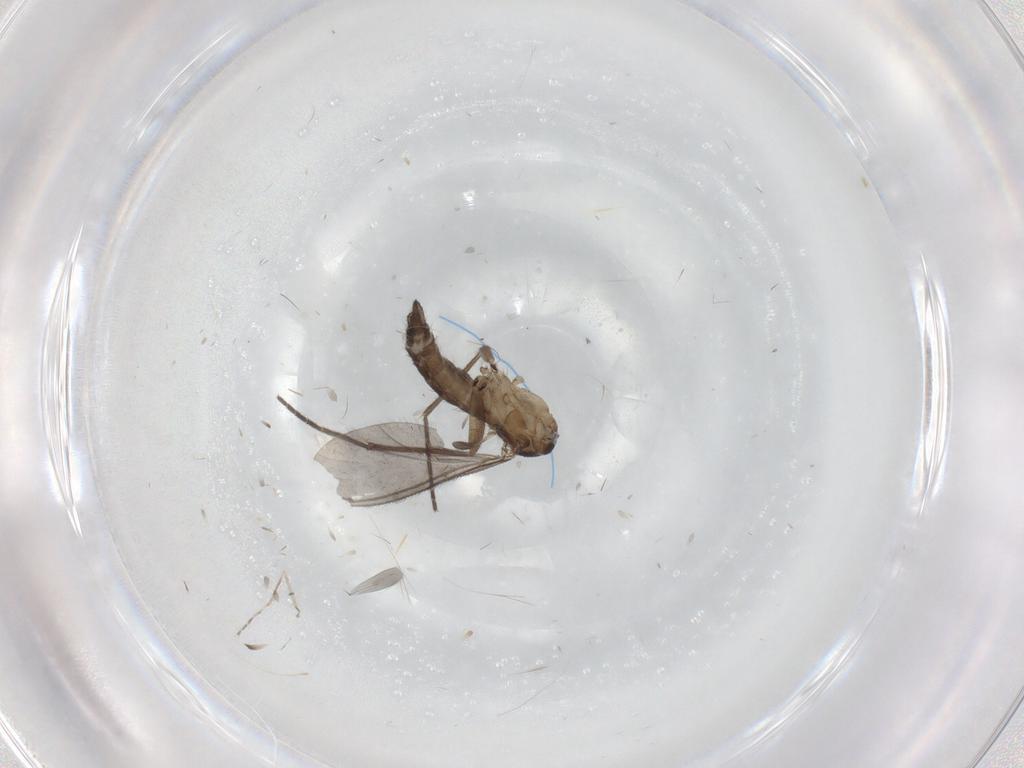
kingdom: Animalia
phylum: Arthropoda
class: Insecta
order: Diptera
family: Sciaridae
